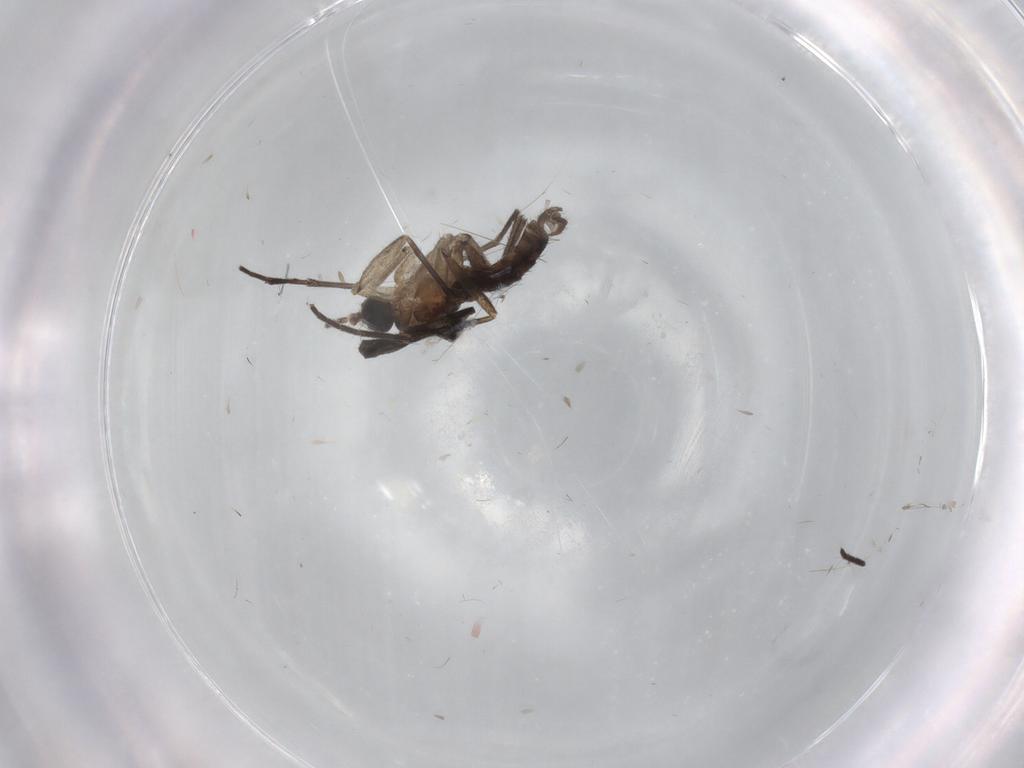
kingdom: Animalia
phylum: Arthropoda
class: Insecta
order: Diptera
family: Sciaridae
